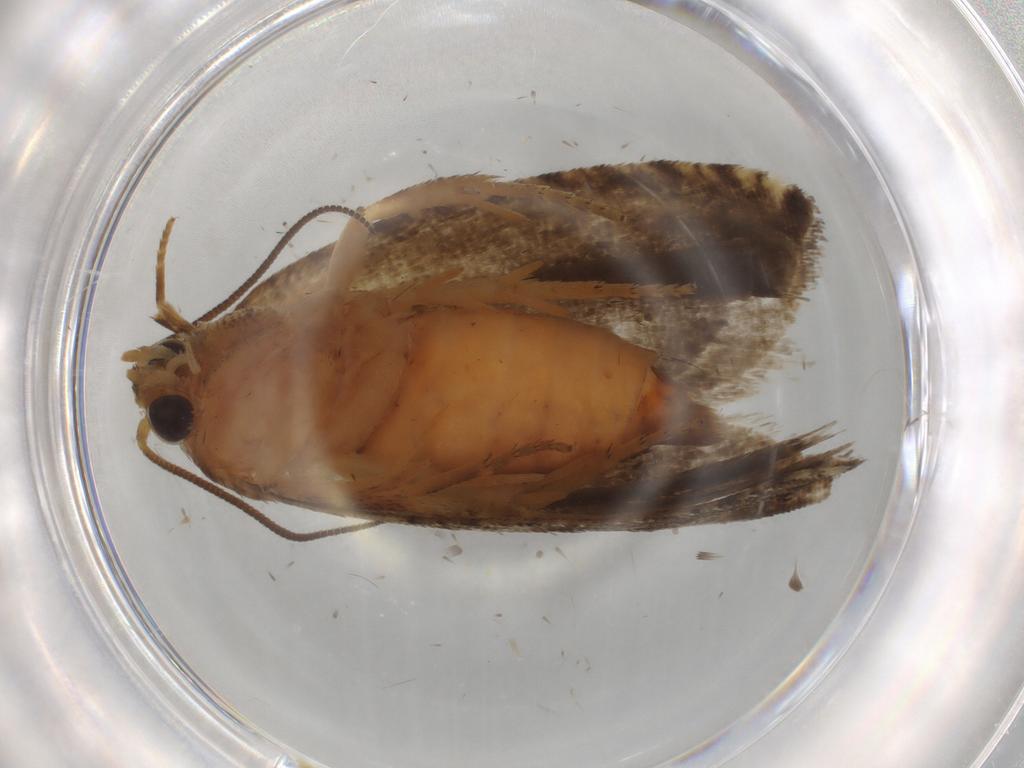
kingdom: Animalia
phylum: Arthropoda
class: Insecta
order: Lepidoptera
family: Tortricidae
